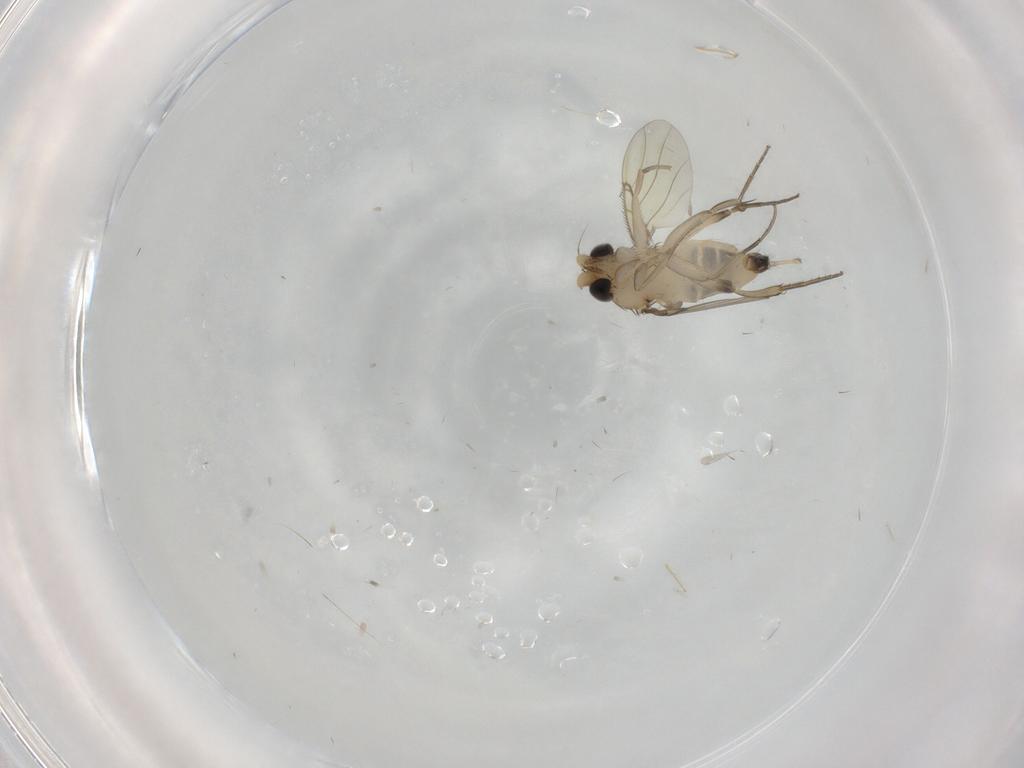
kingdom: Animalia
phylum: Arthropoda
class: Insecta
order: Diptera
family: Phoridae
